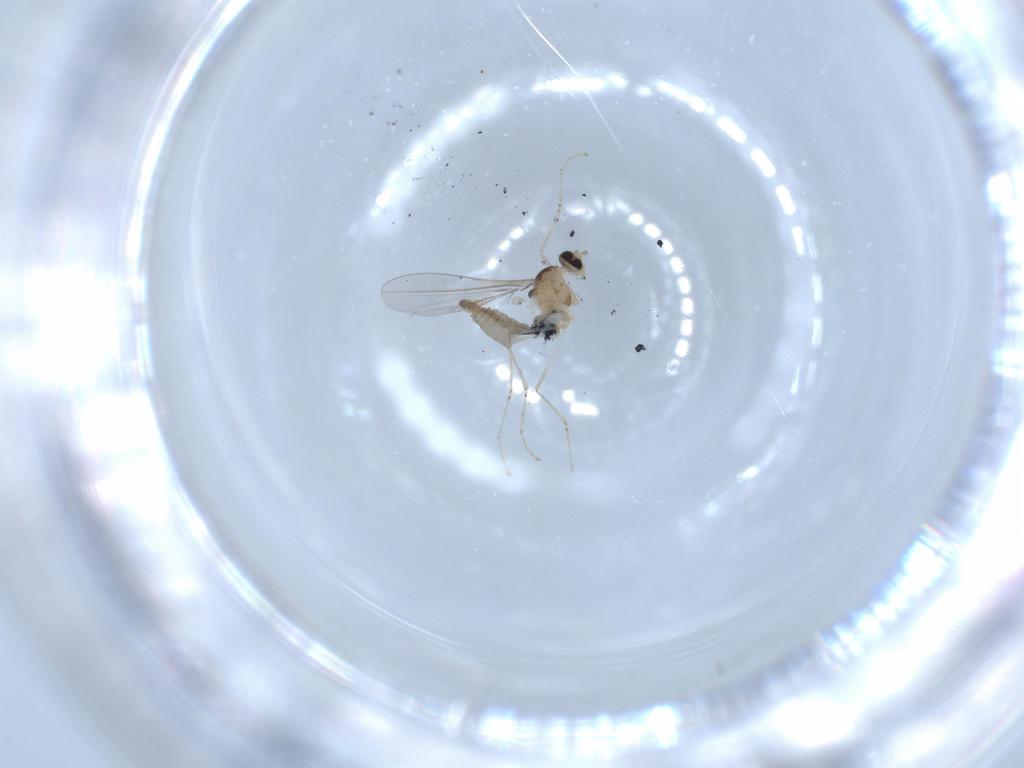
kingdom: Animalia
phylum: Arthropoda
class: Insecta
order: Diptera
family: Cecidomyiidae
